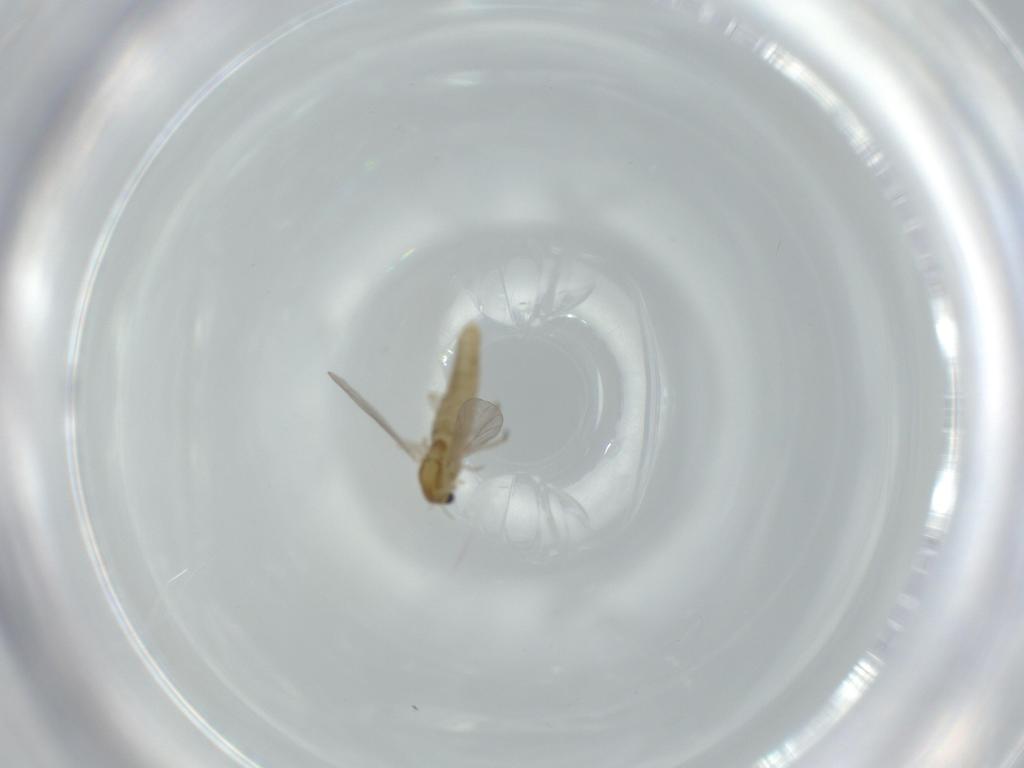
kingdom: Animalia
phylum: Arthropoda
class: Insecta
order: Diptera
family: Chironomidae
